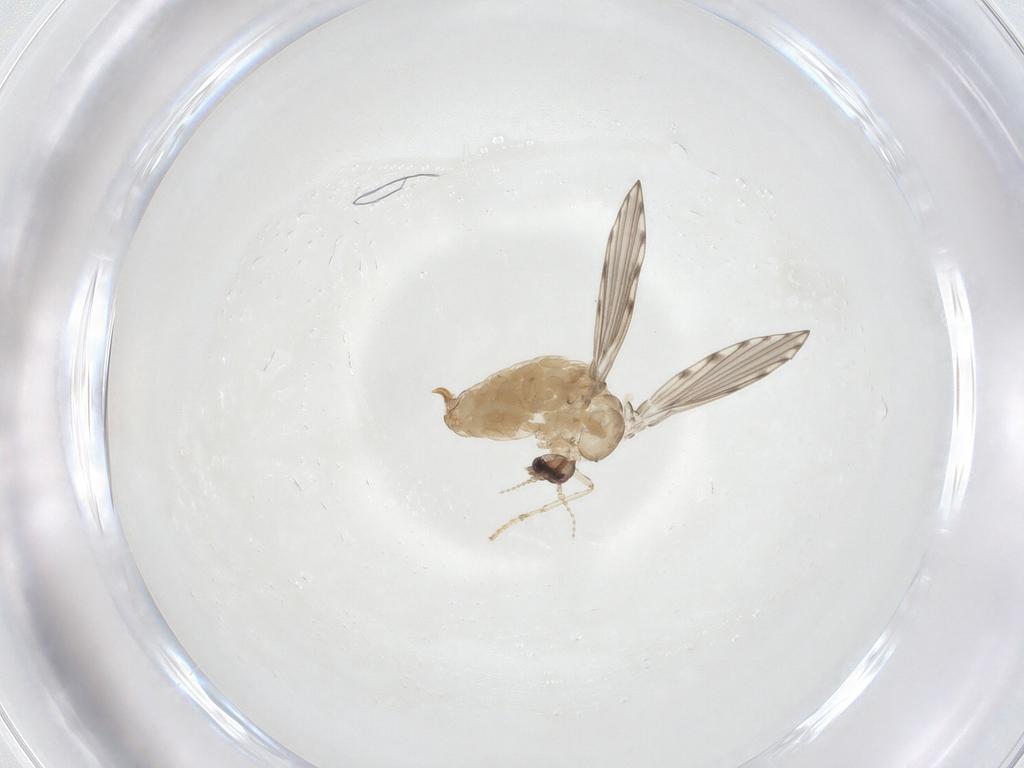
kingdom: Animalia
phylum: Arthropoda
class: Insecta
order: Diptera
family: Psychodidae
